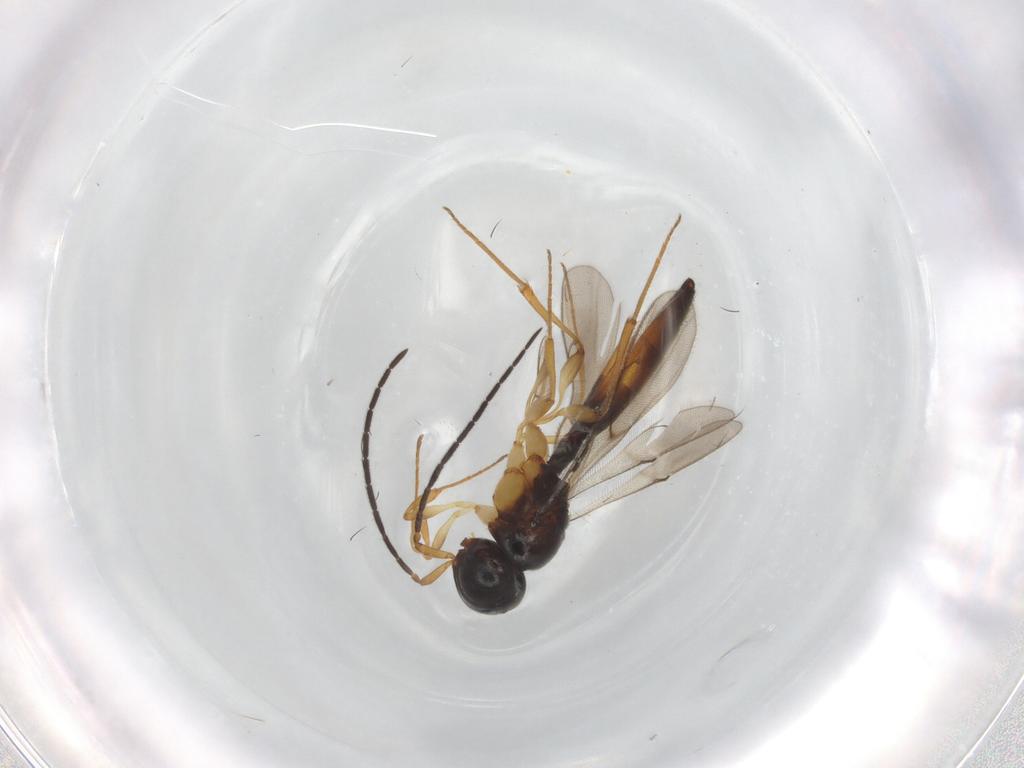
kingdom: Animalia
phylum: Arthropoda
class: Insecta
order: Hymenoptera
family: Scelionidae
